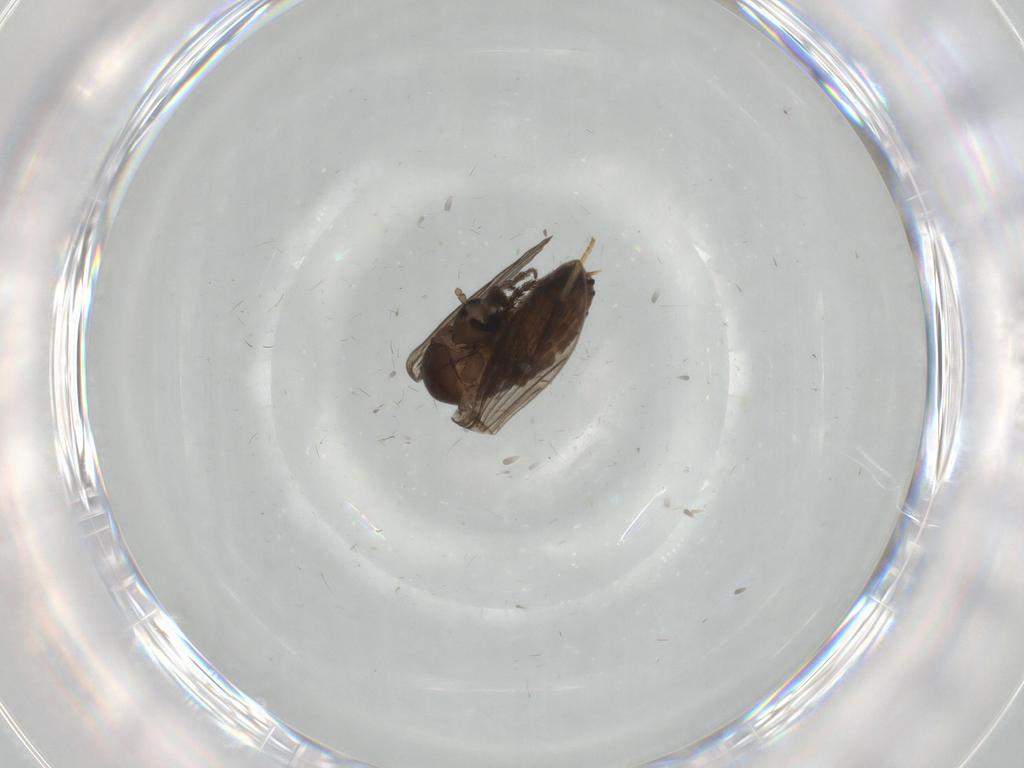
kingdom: Animalia
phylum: Arthropoda
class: Insecta
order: Diptera
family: Psychodidae
